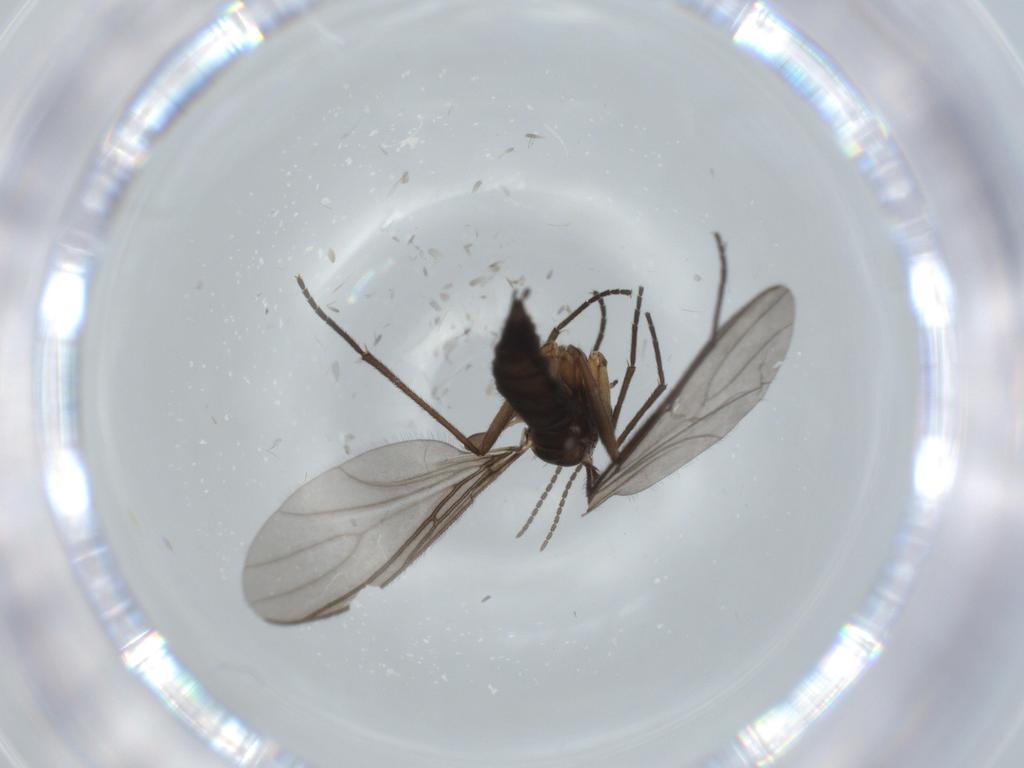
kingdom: Animalia
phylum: Arthropoda
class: Insecta
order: Diptera
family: Cecidomyiidae
